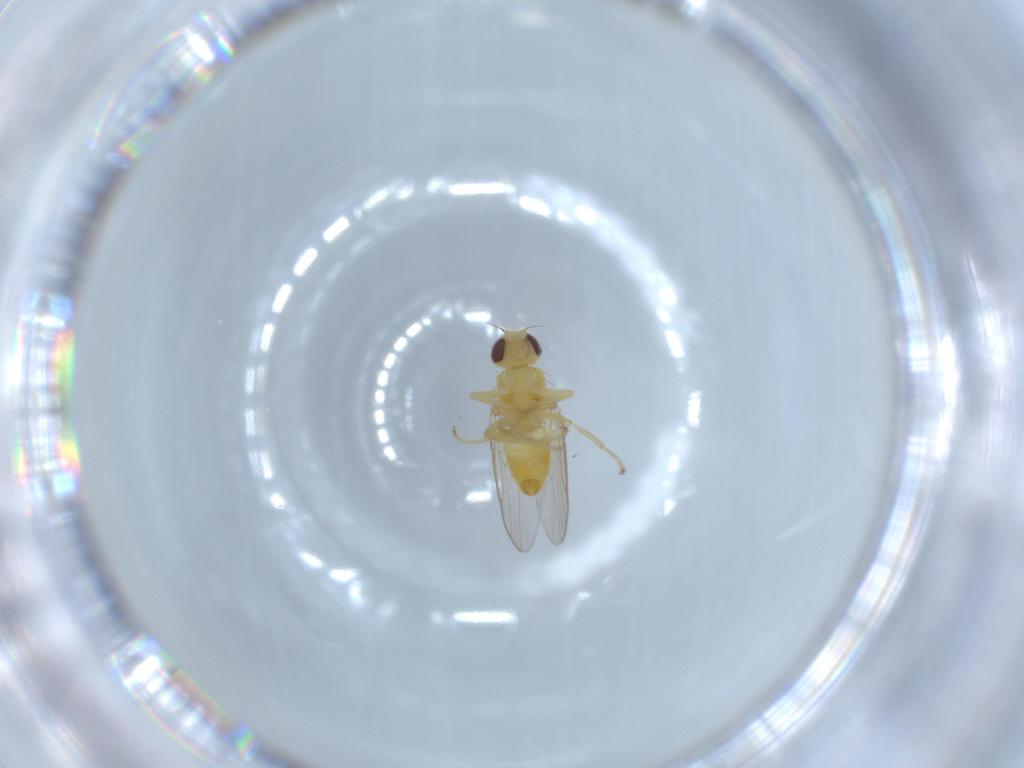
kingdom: Animalia
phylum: Arthropoda
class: Insecta
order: Diptera
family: Chloropidae
